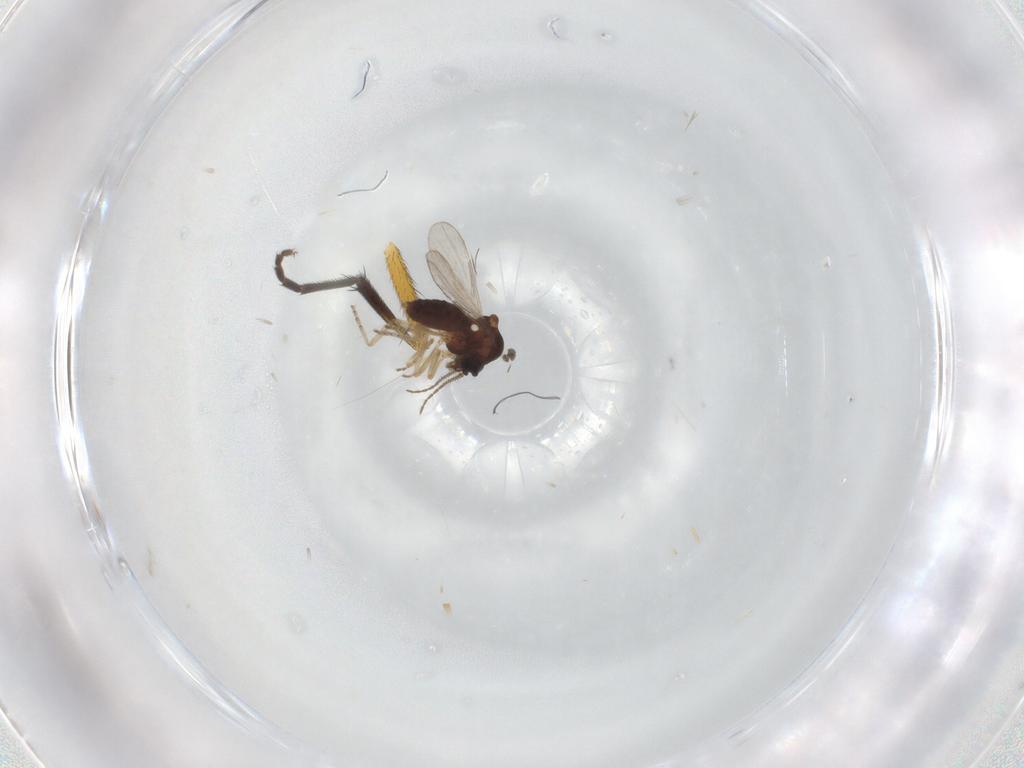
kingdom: Animalia
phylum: Arthropoda
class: Insecta
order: Diptera
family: Ceratopogonidae
